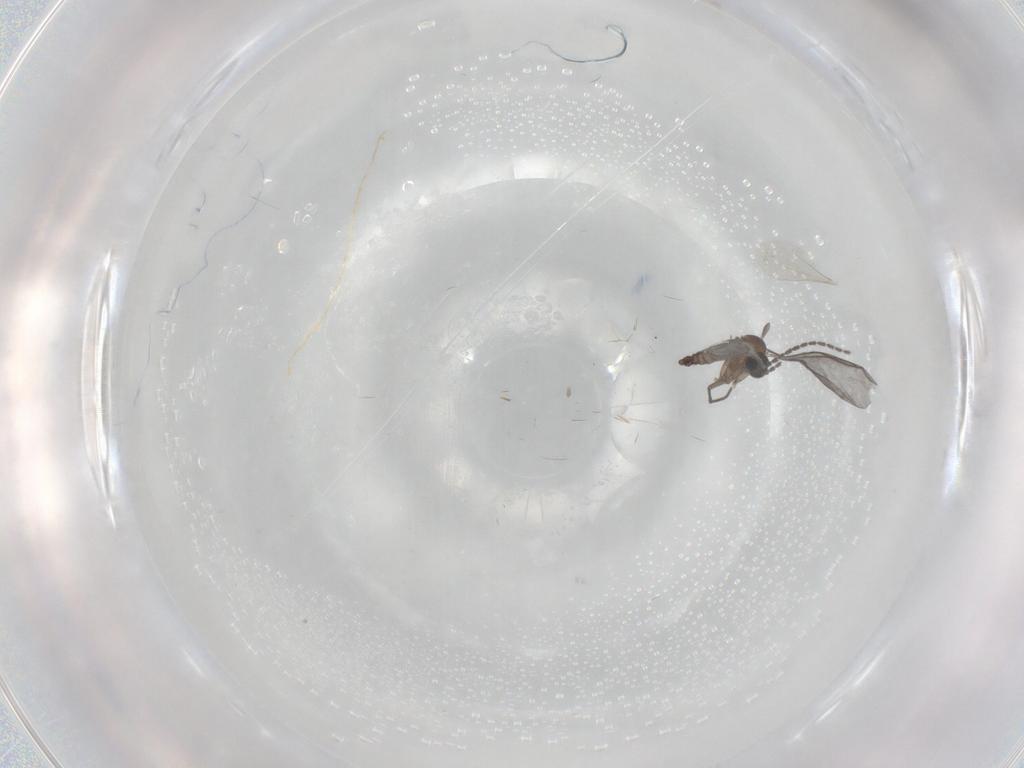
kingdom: Animalia
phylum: Arthropoda
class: Insecta
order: Diptera
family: Sciaridae
